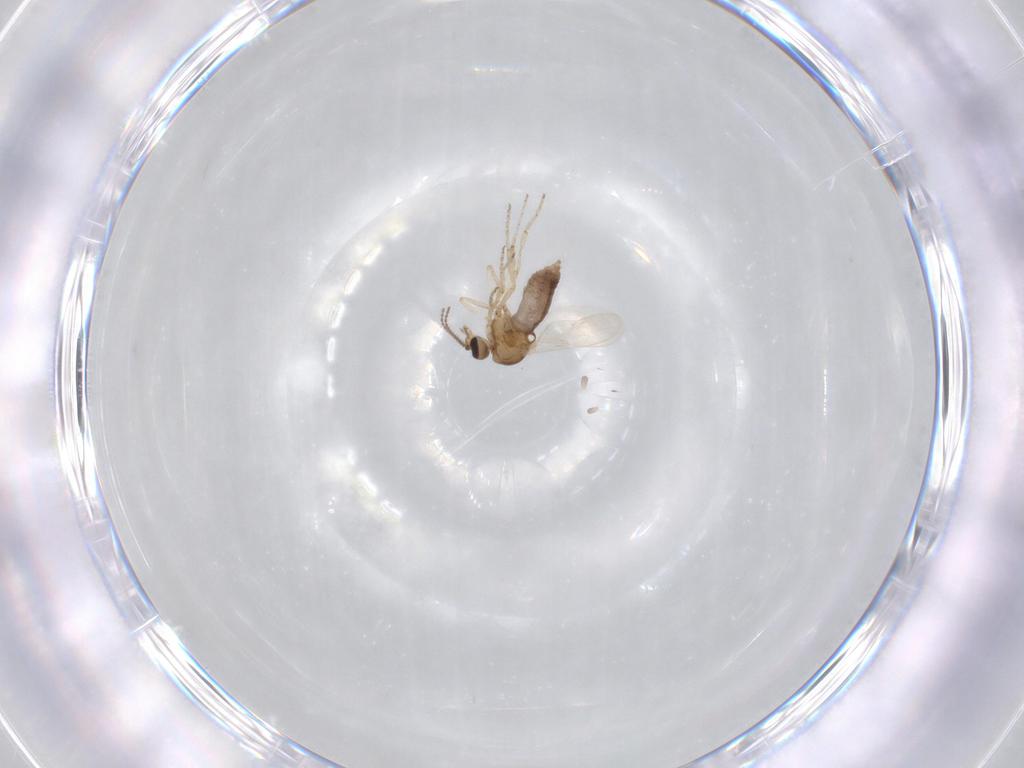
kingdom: Animalia
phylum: Arthropoda
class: Insecta
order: Diptera
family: Ceratopogonidae
